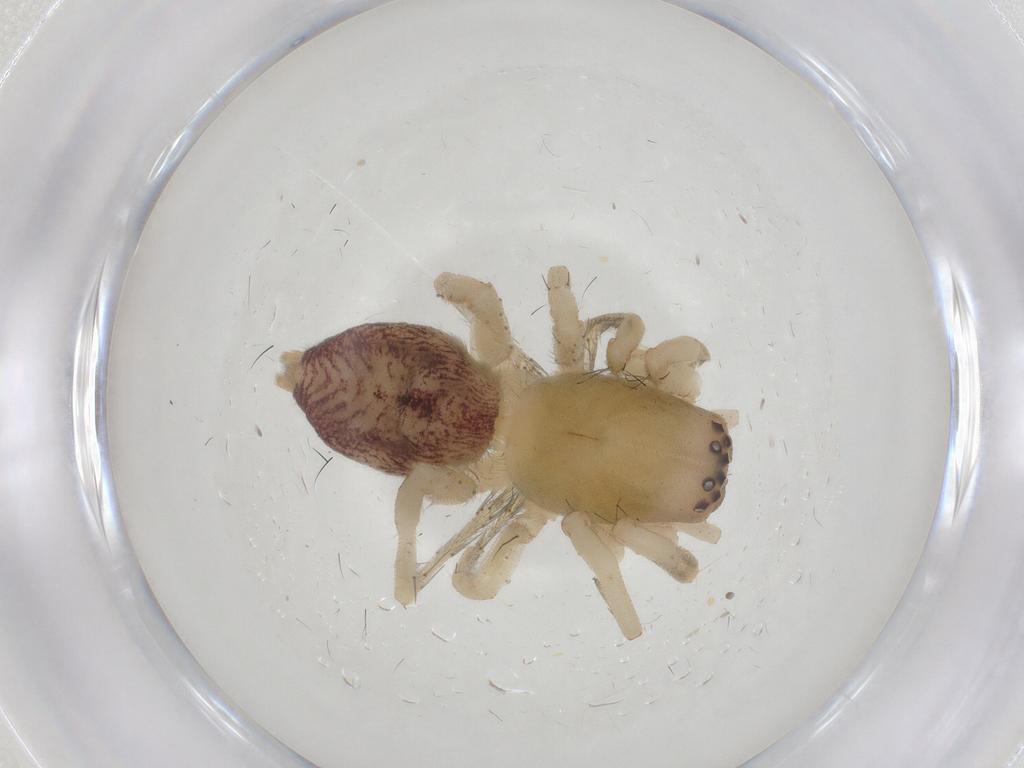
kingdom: Animalia
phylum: Arthropoda
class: Arachnida
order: Araneae
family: Clubionidae
